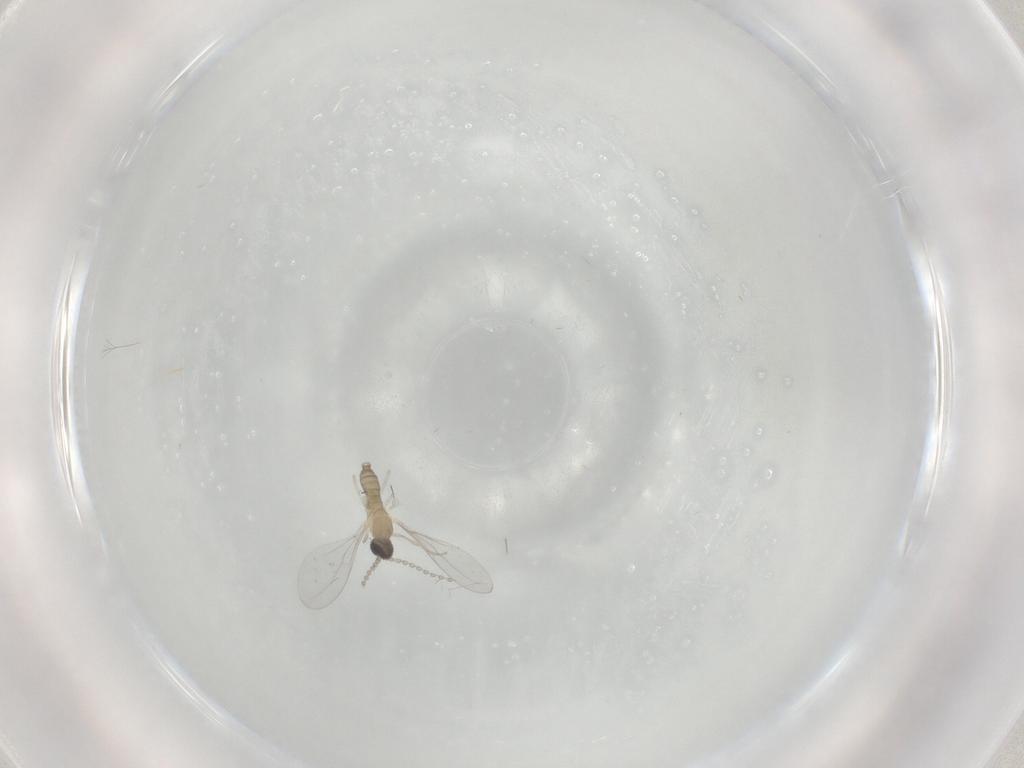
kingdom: Animalia
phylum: Arthropoda
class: Insecta
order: Diptera
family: Cecidomyiidae
